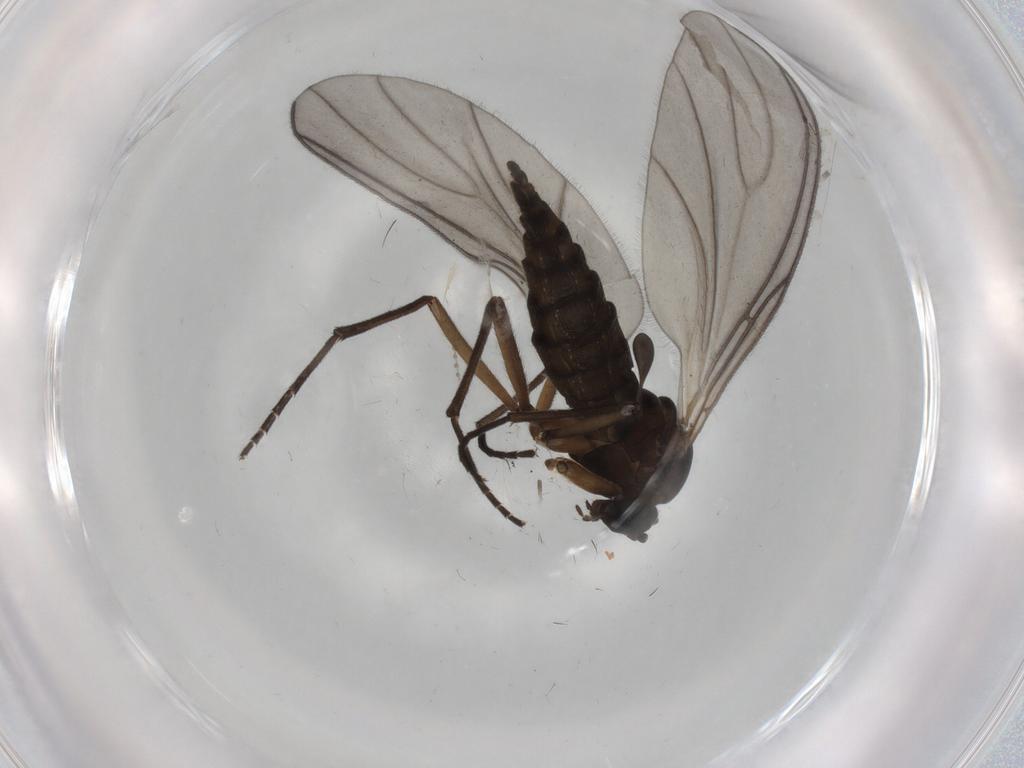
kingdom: Animalia
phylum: Arthropoda
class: Insecta
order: Diptera
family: Sciaridae
